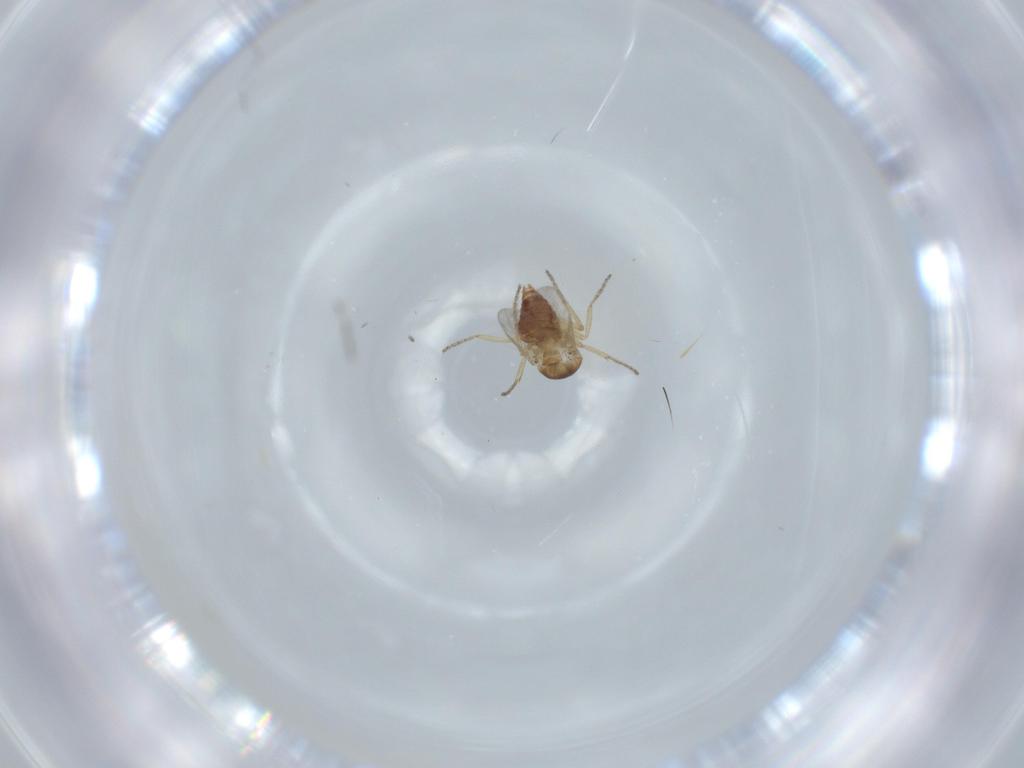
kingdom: Animalia
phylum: Arthropoda
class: Insecta
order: Diptera
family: Ceratopogonidae
